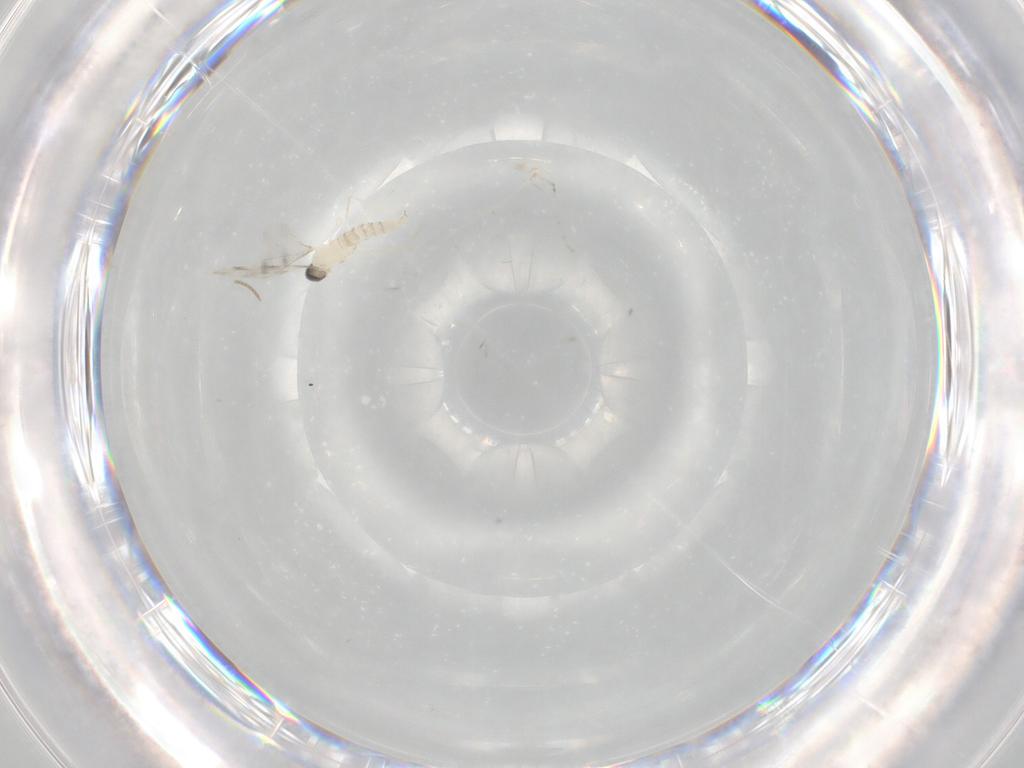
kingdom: Animalia
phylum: Arthropoda
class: Insecta
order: Diptera
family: Cecidomyiidae
